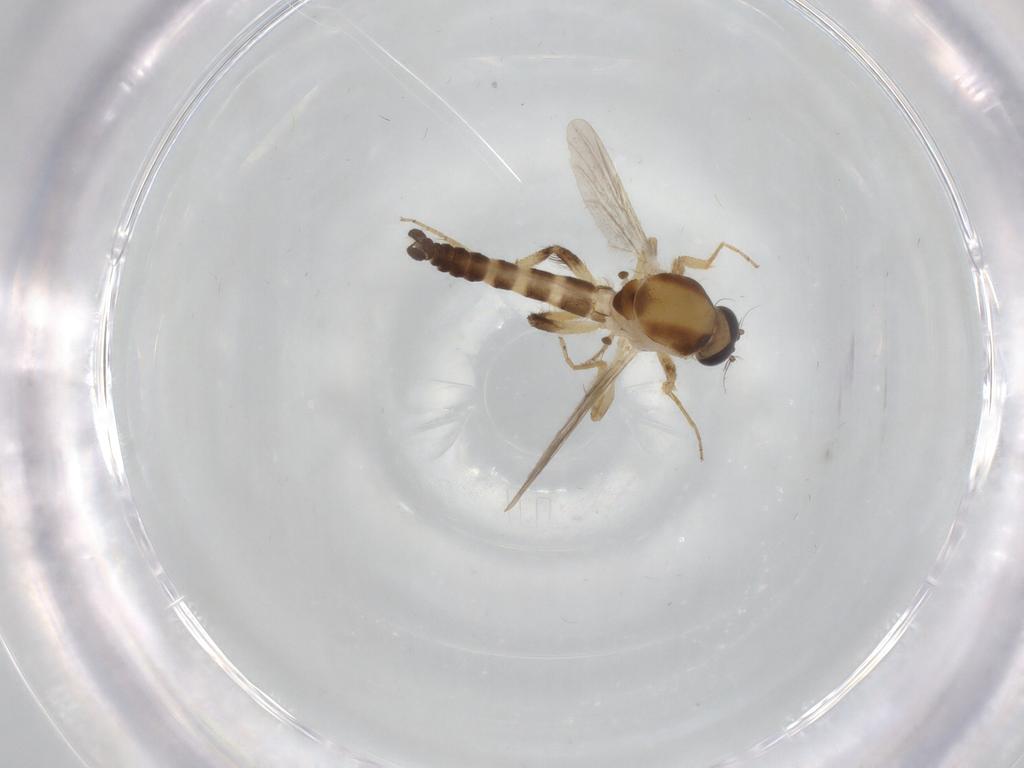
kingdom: Animalia
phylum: Arthropoda
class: Insecta
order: Diptera
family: Ceratopogonidae
